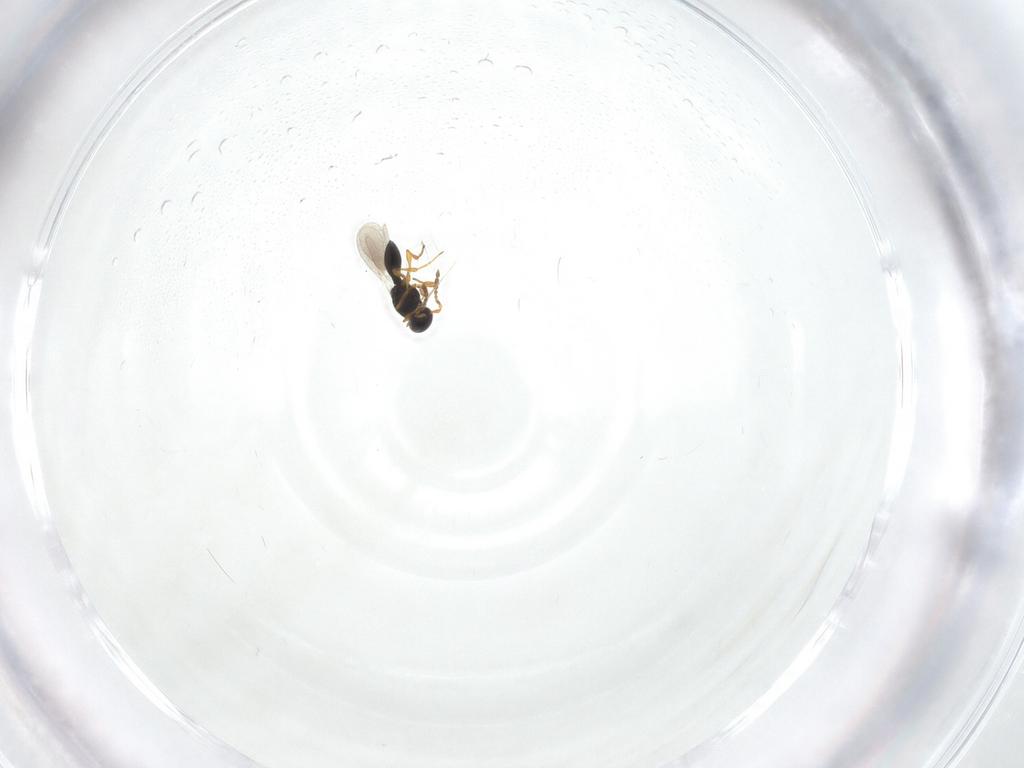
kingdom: Animalia
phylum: Arthropoda
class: Insecta
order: Hymenoptera
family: Platygastridae
